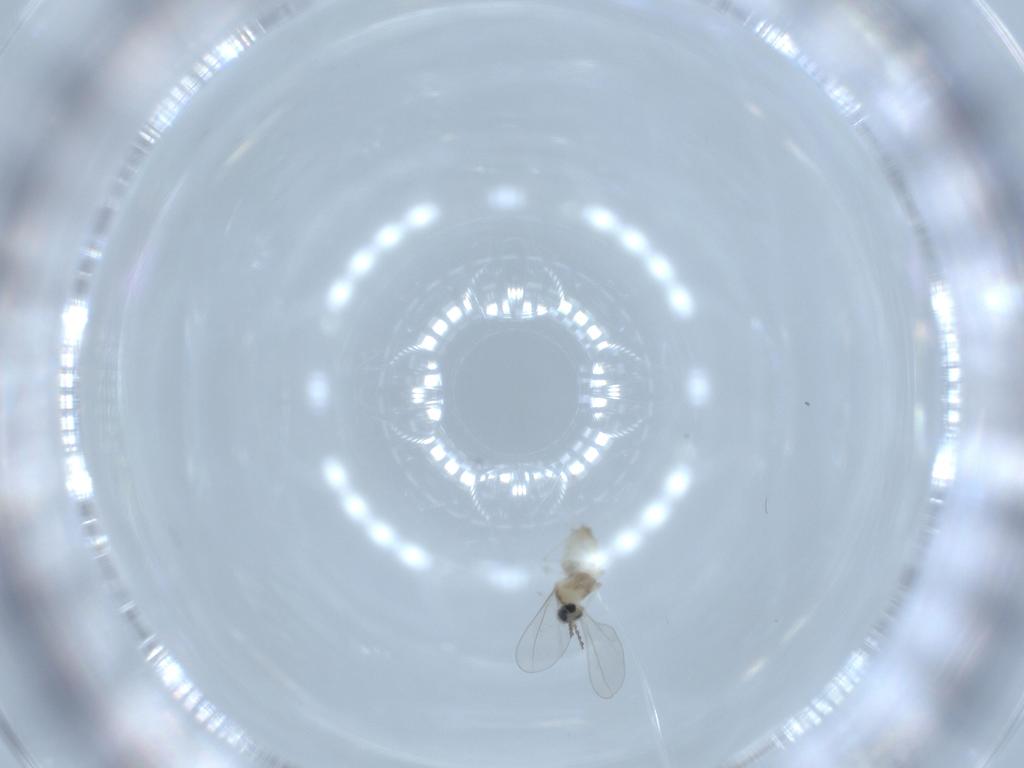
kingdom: Animalia
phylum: Arthropoda
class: Insecta
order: Diptera
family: Cecidomyiidae
